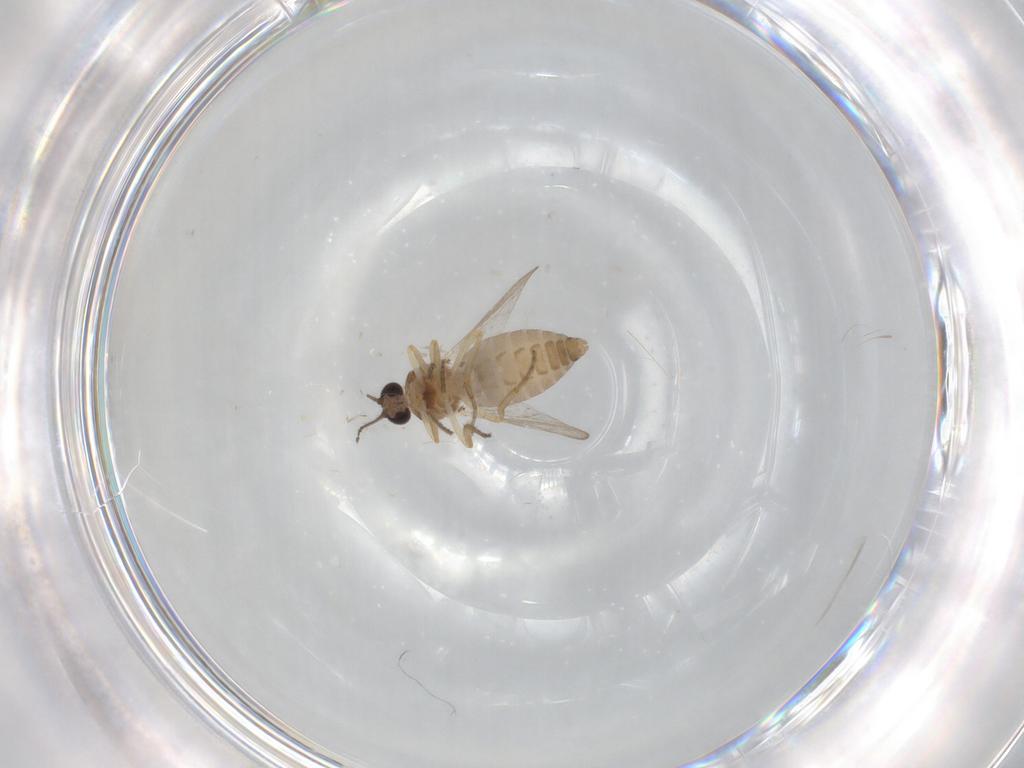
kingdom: Animalia
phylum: Arthropoda
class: Insecta
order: Diptera
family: Ceratopogonidae
